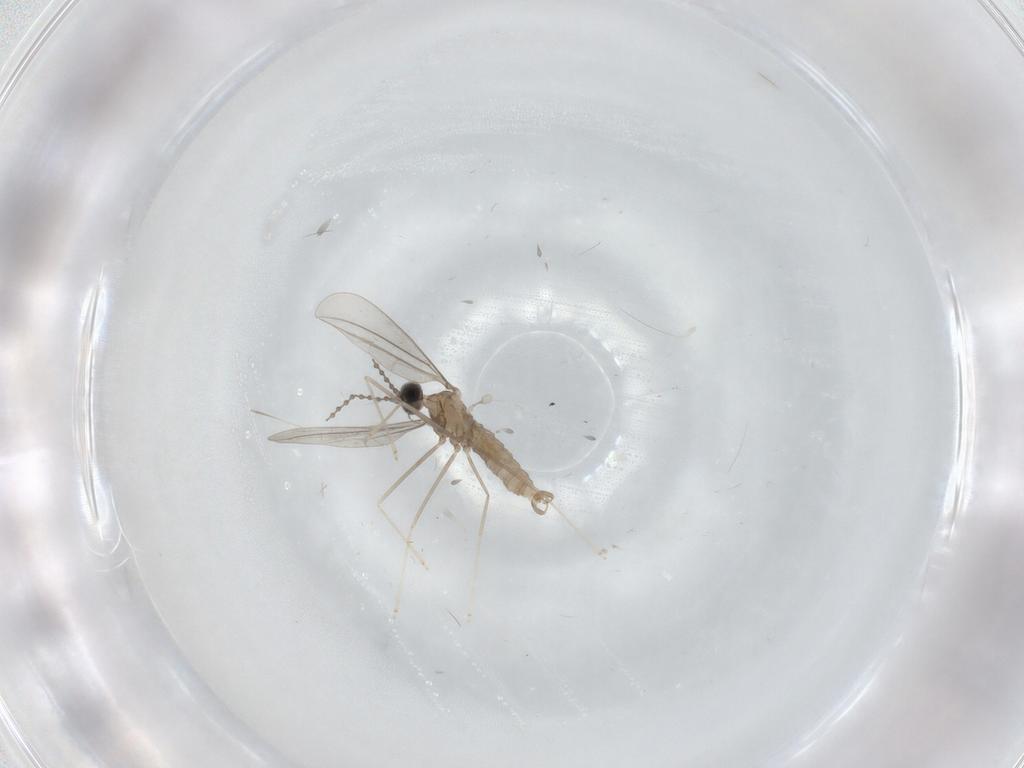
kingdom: Animalia
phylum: Arthropoda
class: Insecta
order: Diptera
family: Cecidomyiidae
